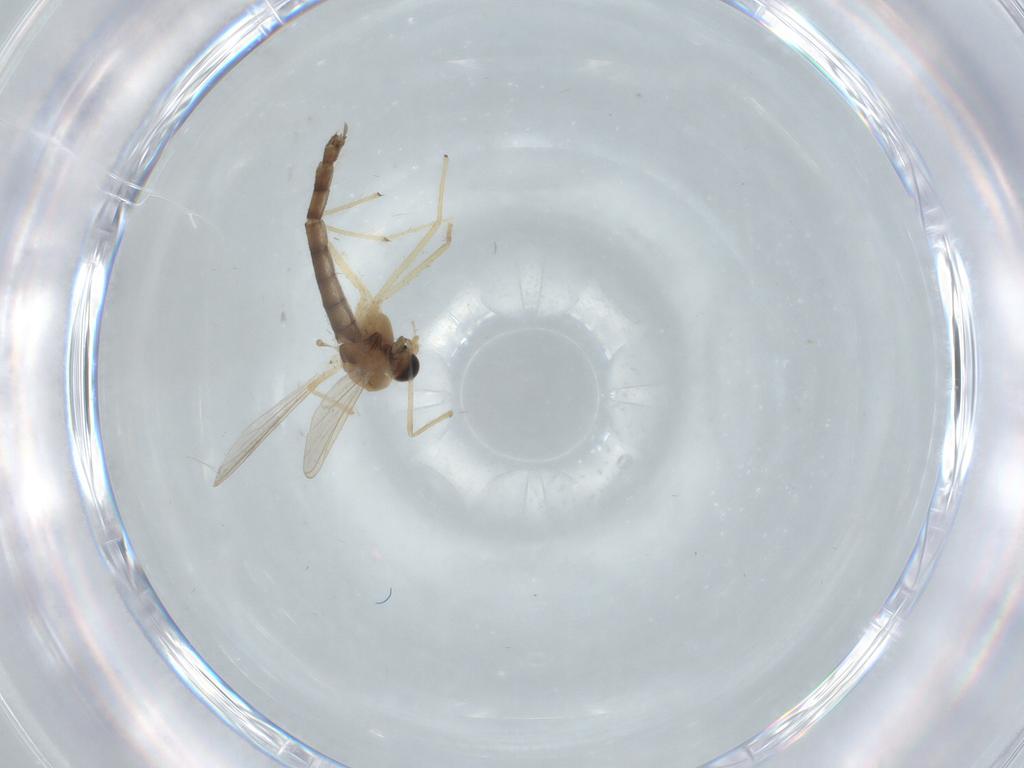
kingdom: Animalia
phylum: Arthropoda
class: Insecta
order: Diptera
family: Chironomidae
